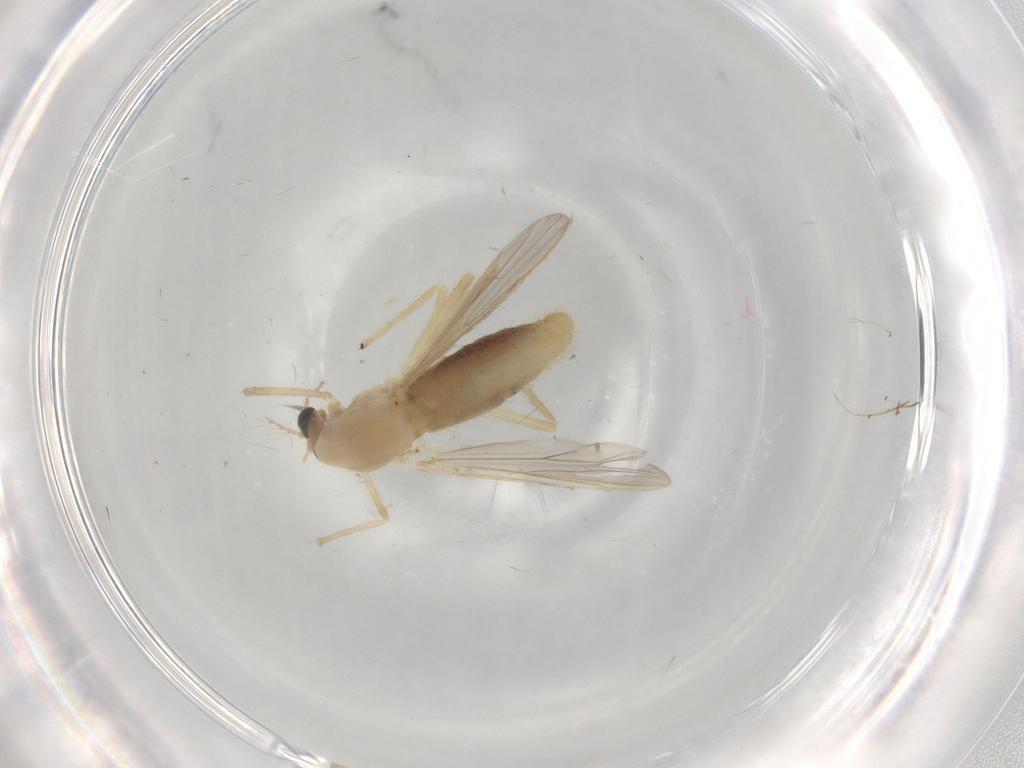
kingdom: Animalia
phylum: Arthropoda
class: Insecta
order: Diptera
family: Chironomidae
